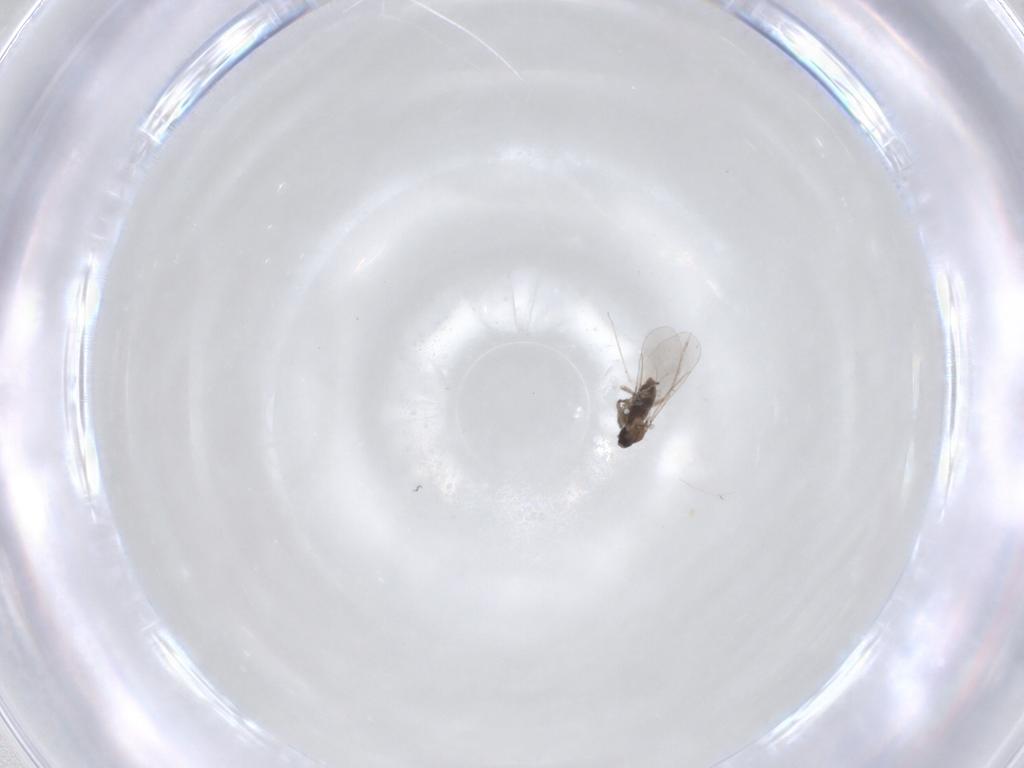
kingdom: Animalia
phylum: Arthropoda
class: Insecta
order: Diptera
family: Cecidomyiidae
